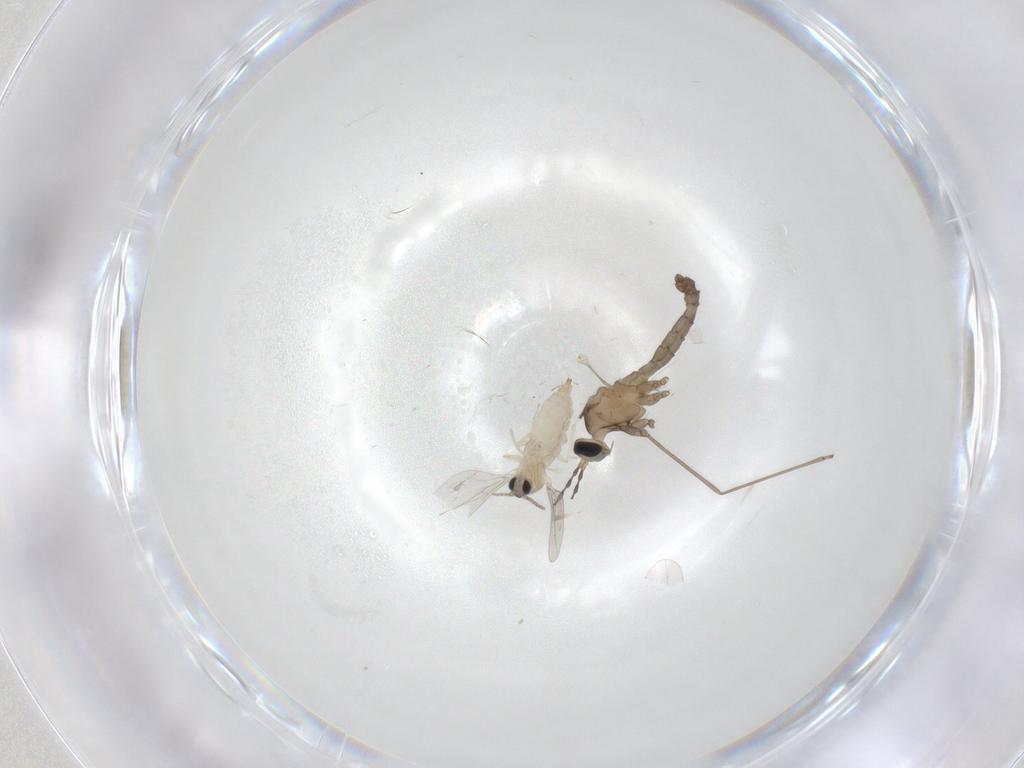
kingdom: Animalia
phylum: Arthropoda
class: Insecta
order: Diptera
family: Cecidomyiidae
